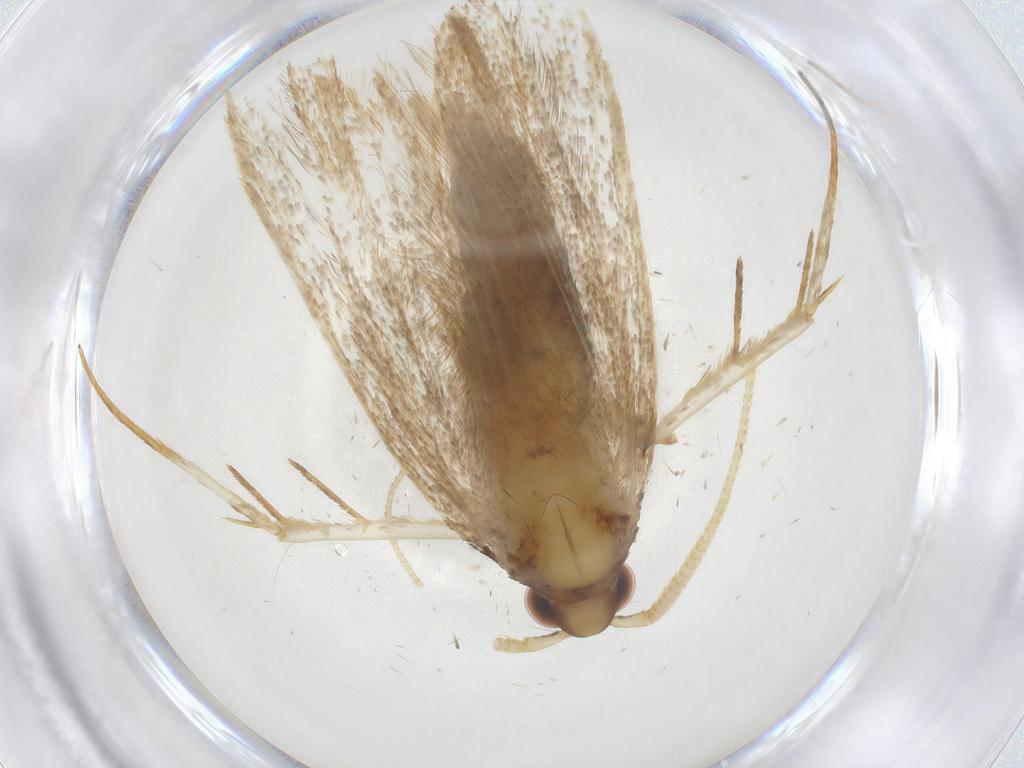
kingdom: Animalia
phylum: Arthropoda
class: Insecta
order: Lepidoptera
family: Lecithoceridae
